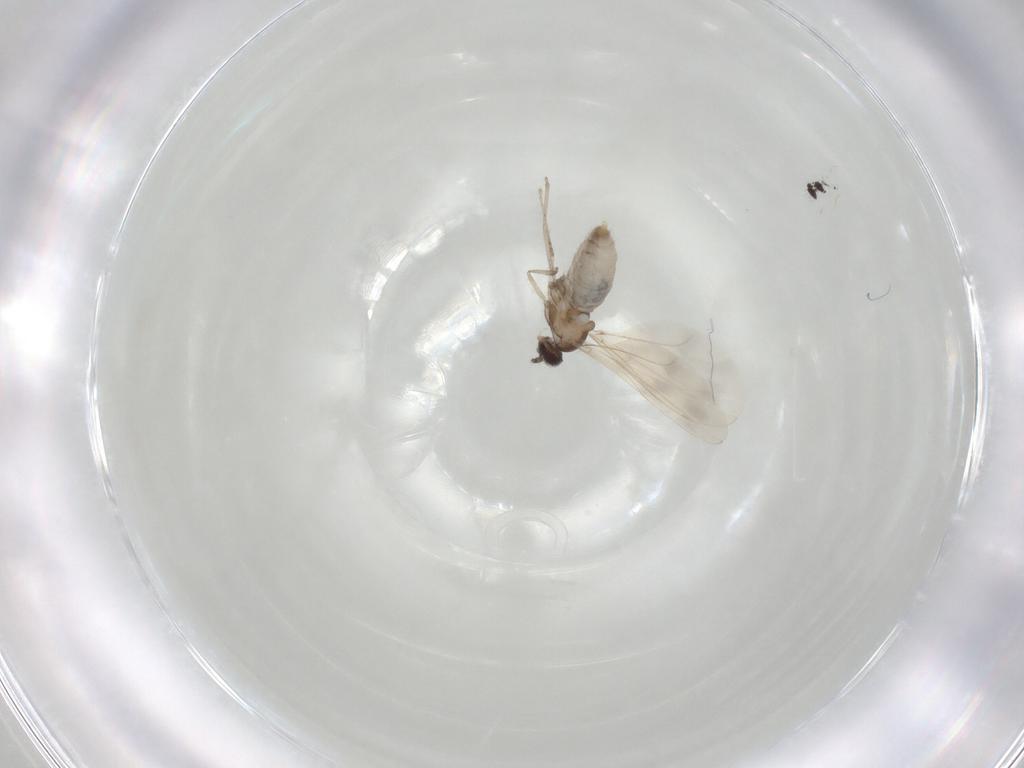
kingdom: Animalia
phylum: Arthropoda
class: Insecta
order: Diptera
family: Cecidomyiidae
